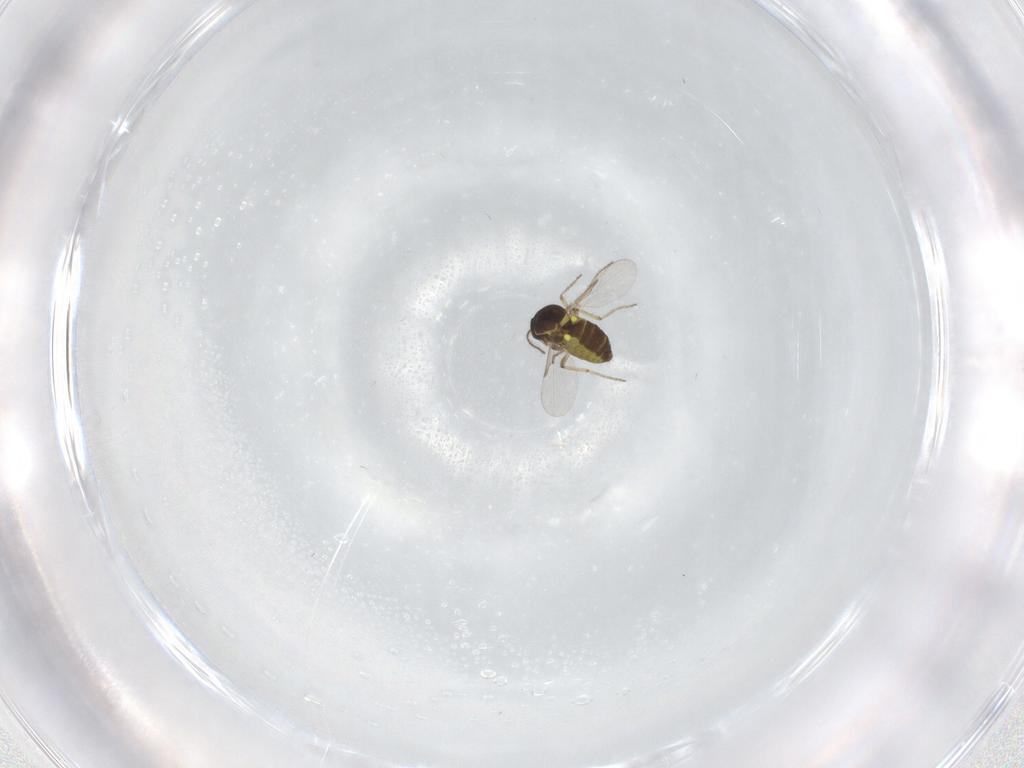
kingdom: Animalia
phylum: Arthropoda
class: Insecta
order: Diptera
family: Ceratopogonidae
